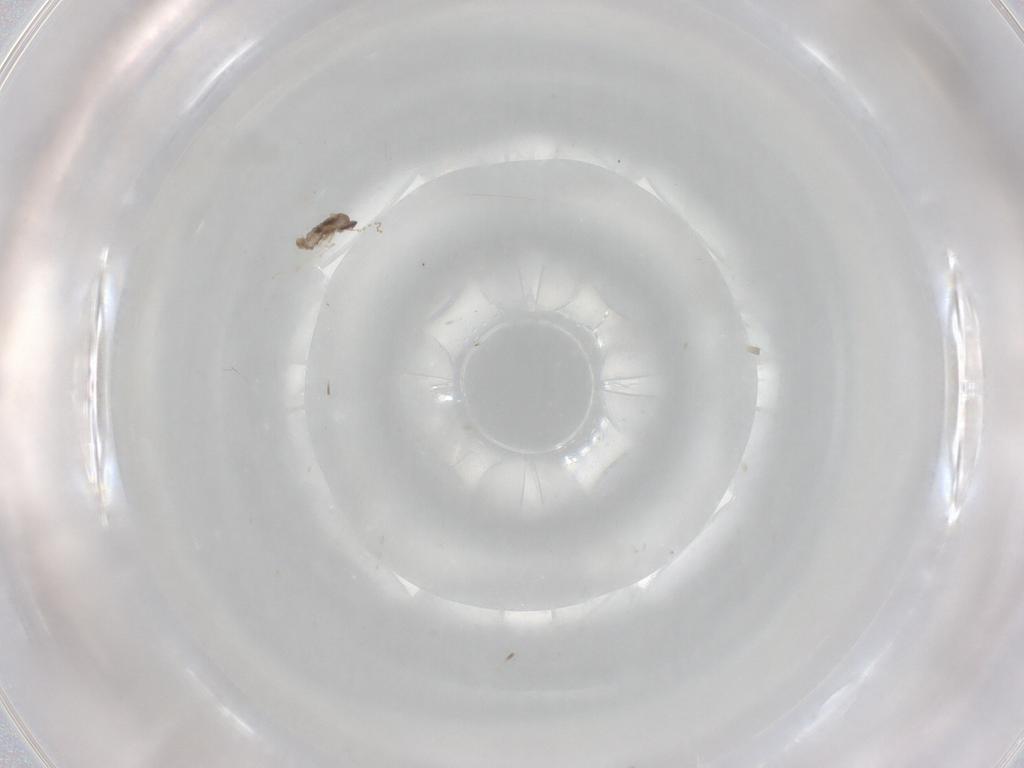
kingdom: Animalia
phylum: Arthropoda
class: Insecta
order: Diptera
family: Cecidomyiidae
